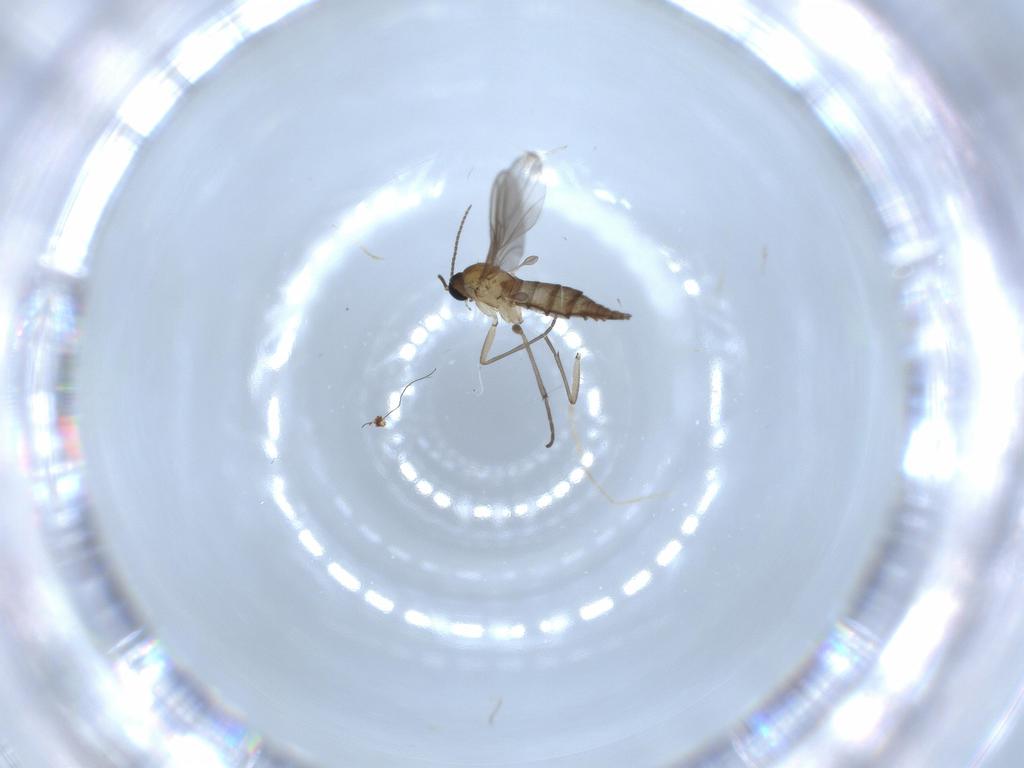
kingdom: Animalia
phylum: Arthropoda
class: Insecta
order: Diptera
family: Sciaridae
